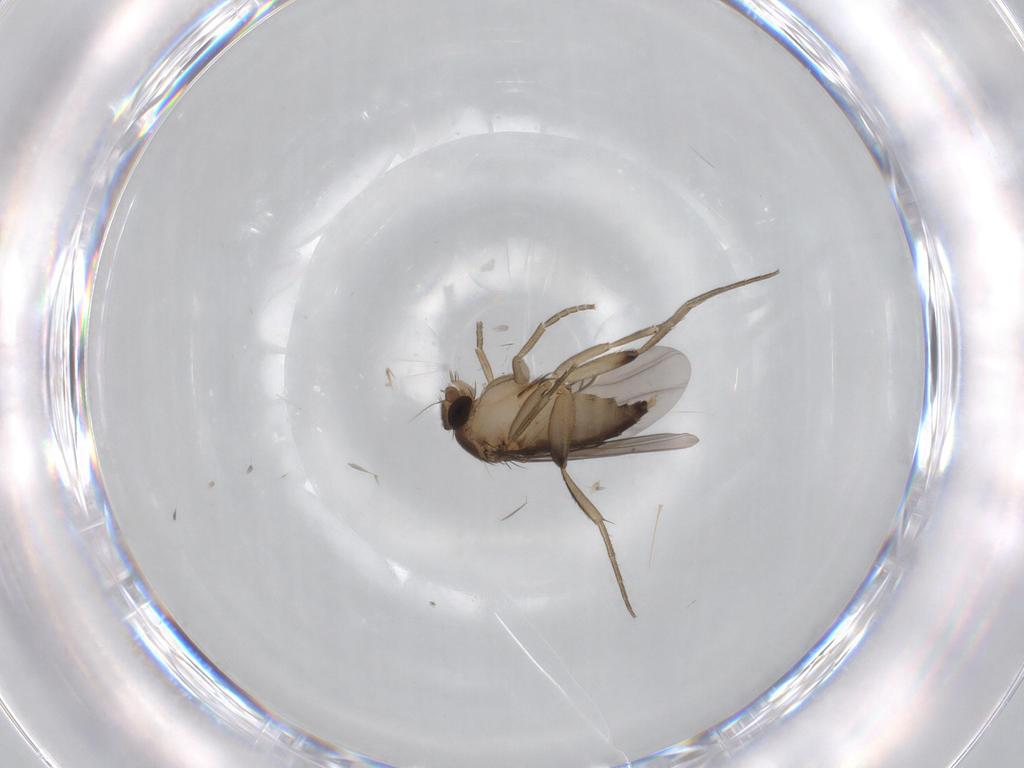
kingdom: Animalia
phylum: Arthropoda
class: Insecta
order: Diptera
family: Phoridae
